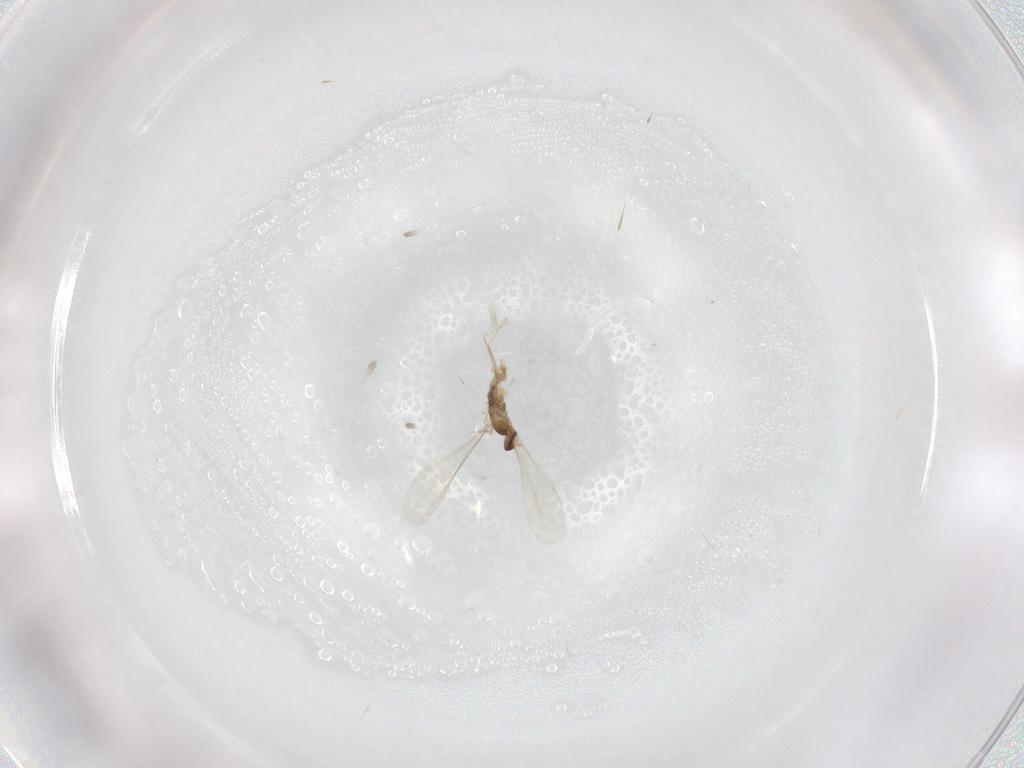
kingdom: Animalia
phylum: Arthropoda
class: Insecta
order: Diptera
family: Cecidomyiidae
